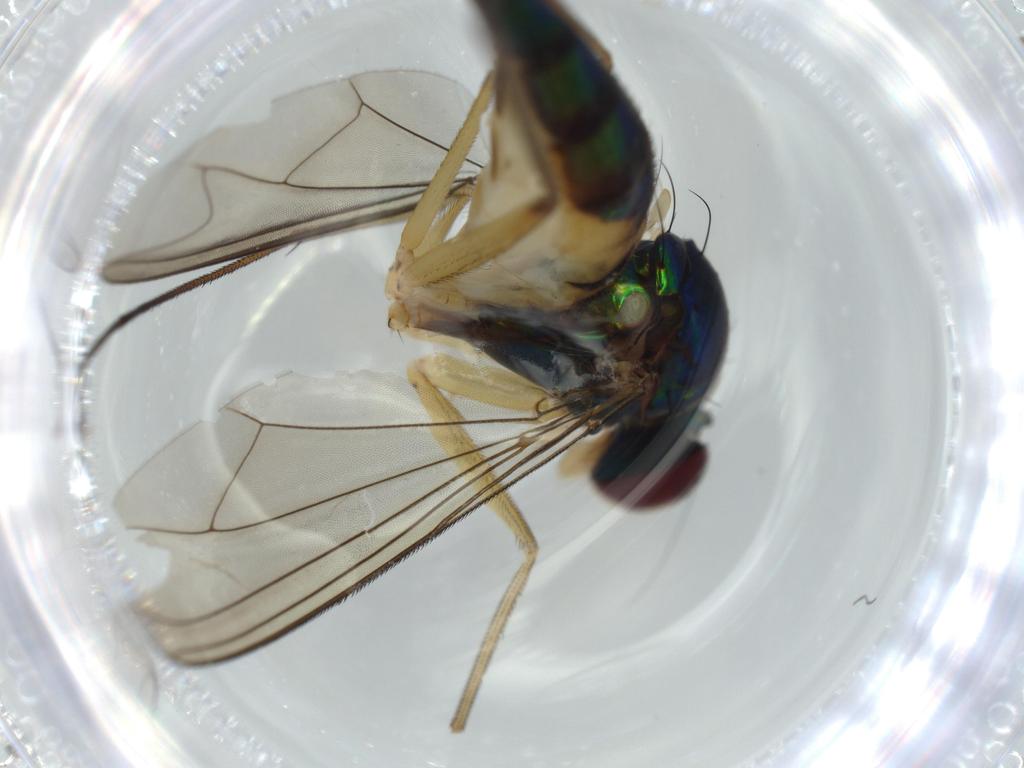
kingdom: Animalia
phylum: Arthropoda
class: Insecta
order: Diptera
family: Dolichopodidae
